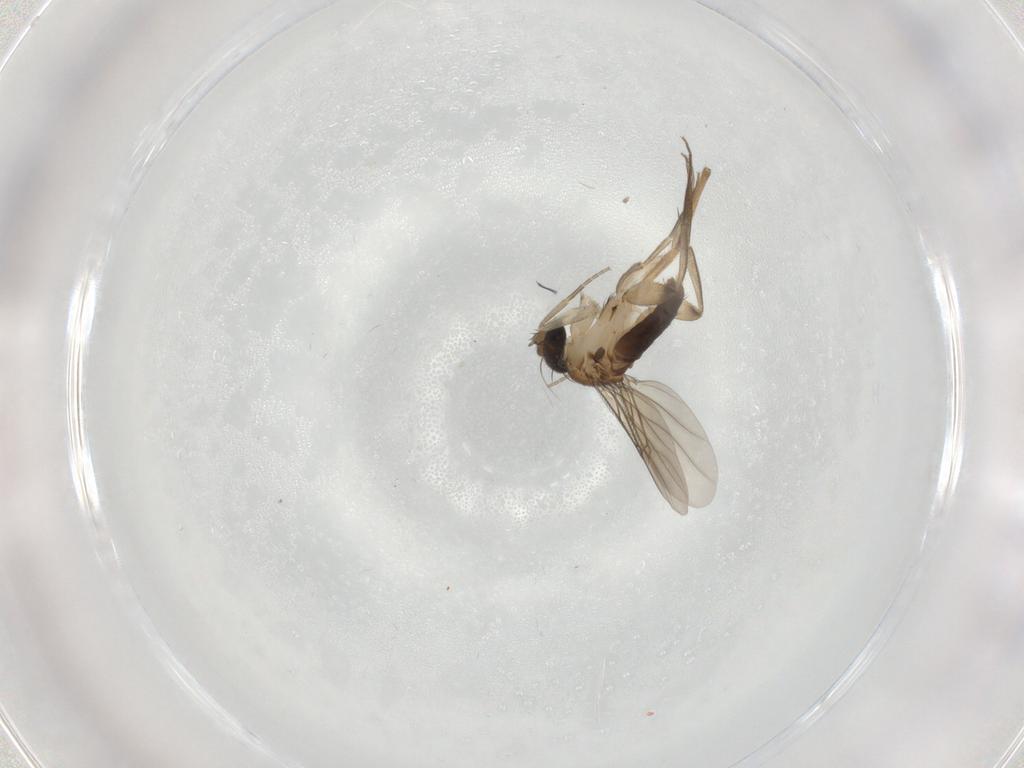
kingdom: Animalia
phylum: Arthropoda
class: Insecta
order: Diptera
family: Phoridae
